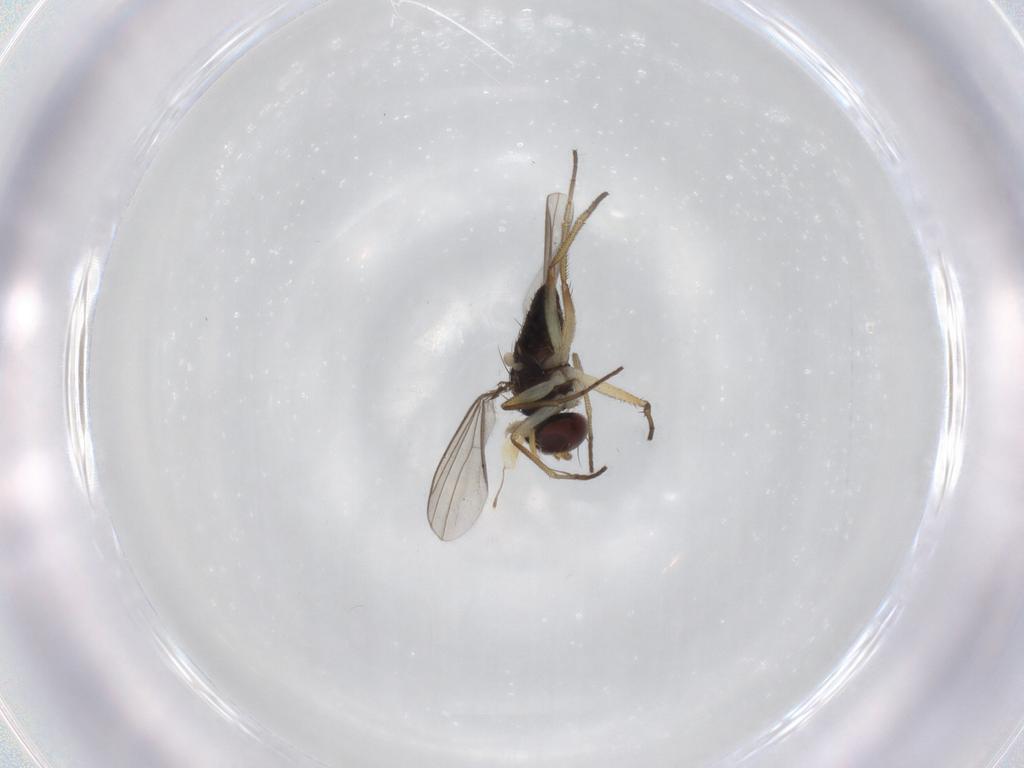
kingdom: Animalia
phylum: Arthropoda
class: Insecta
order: Diptera
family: Dolichopodidae
